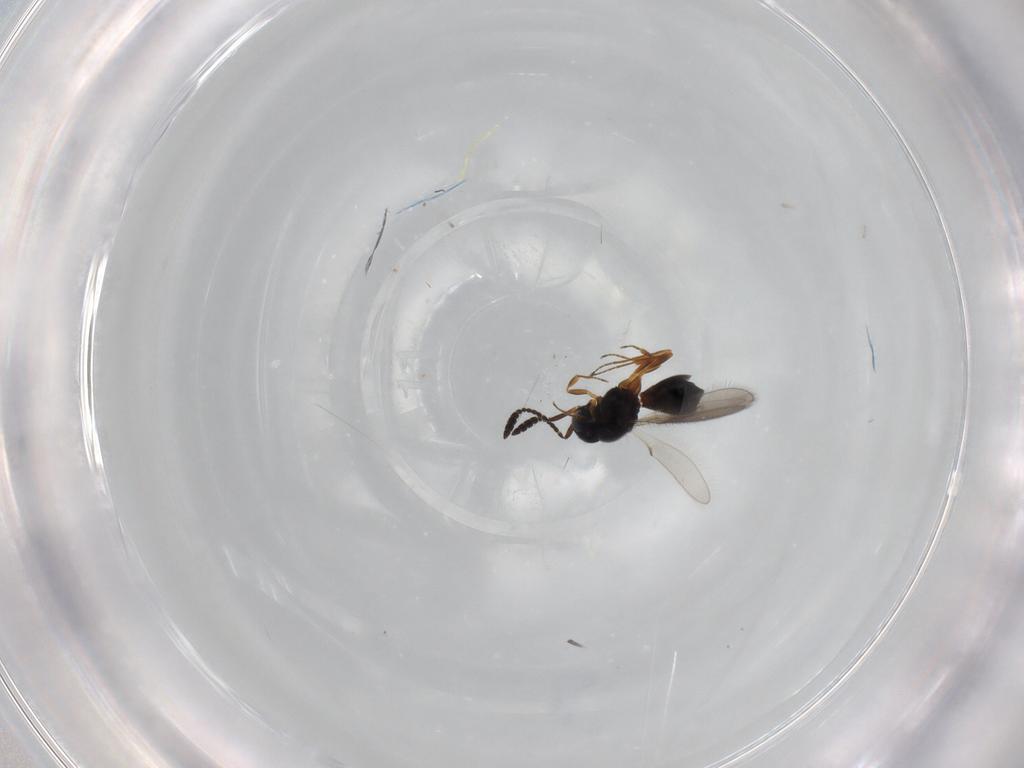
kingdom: Animalia
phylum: Arthropoda
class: Insecta
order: Hymenoptera
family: Scelionidae
